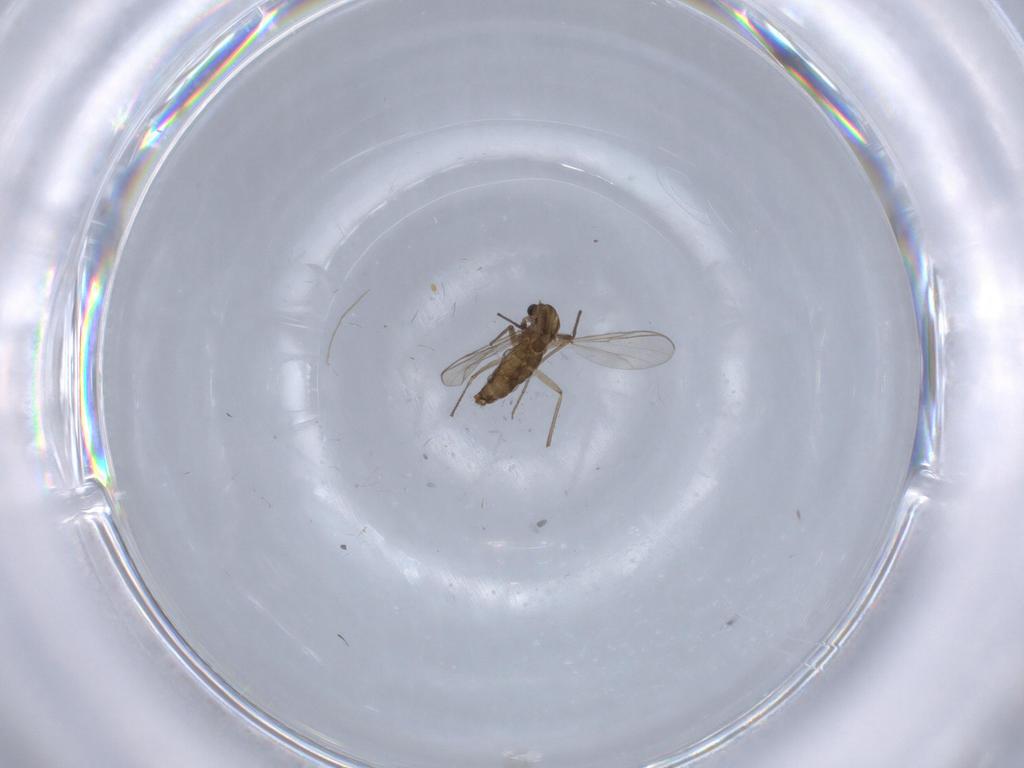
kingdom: Animalia
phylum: Arthropoda
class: Insecta
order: Diptera
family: Chironomidae
